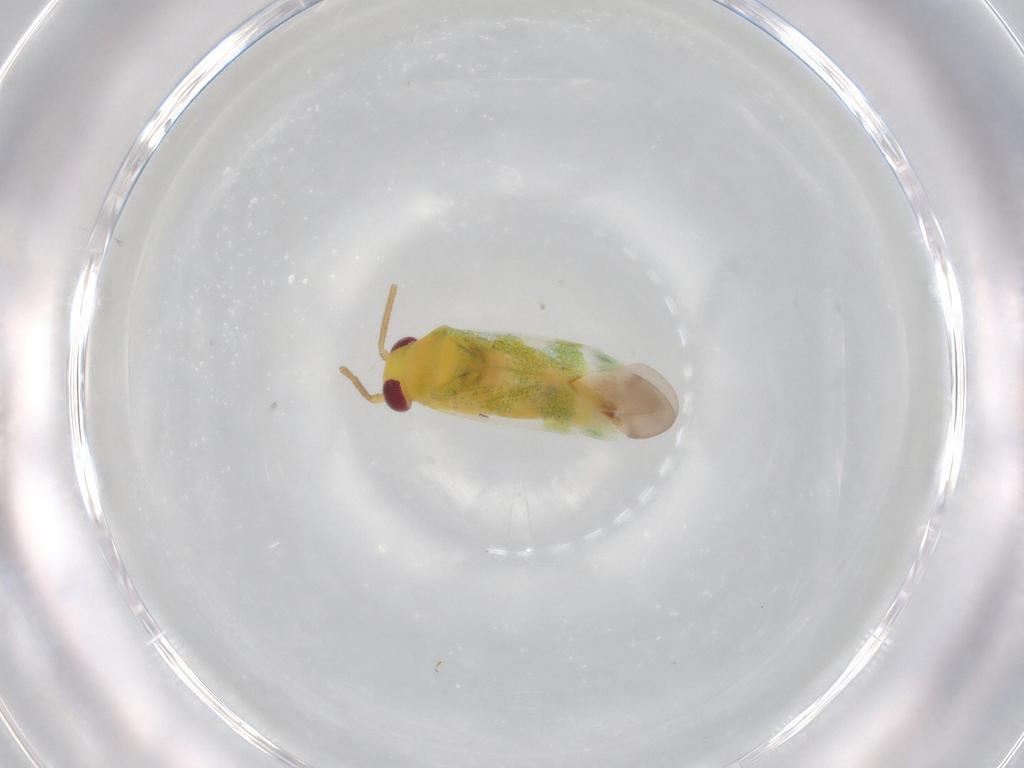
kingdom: Animalia
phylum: Arthropoda
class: Insecta
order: Hemiptera
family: Miridae
